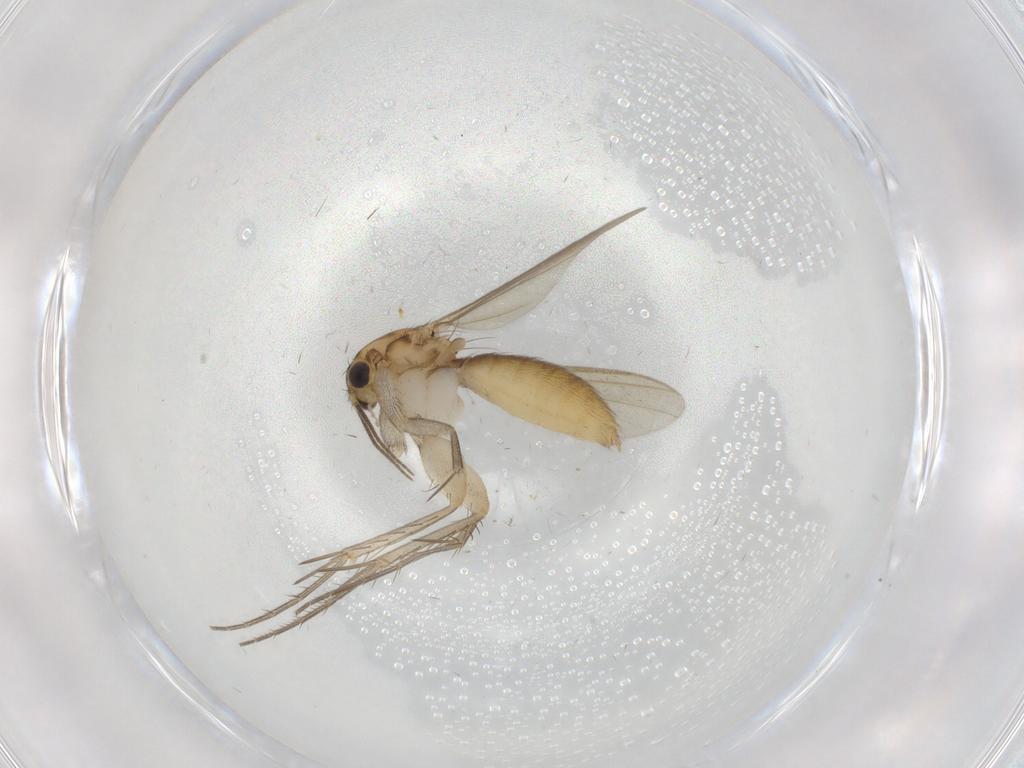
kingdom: Animalia
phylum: Arthropoda
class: Insecta
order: Diptera
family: Mycetophilidae
